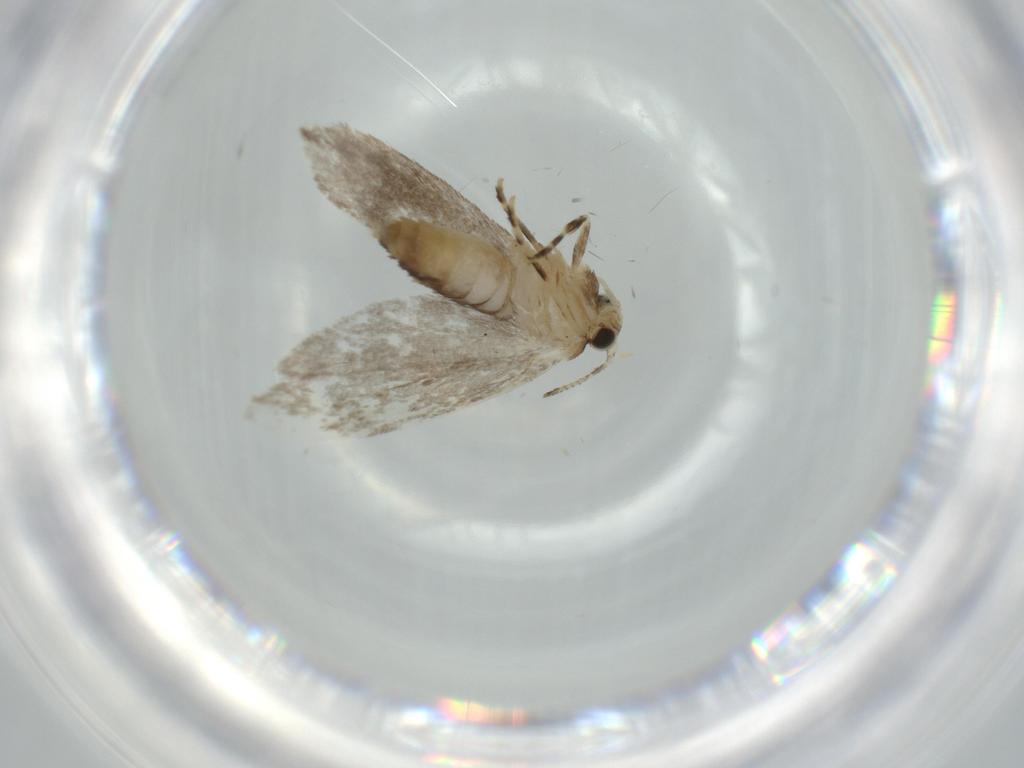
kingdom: Animalia
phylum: Arthropoda
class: Insecta
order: Lepidoptera
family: Tineidae
